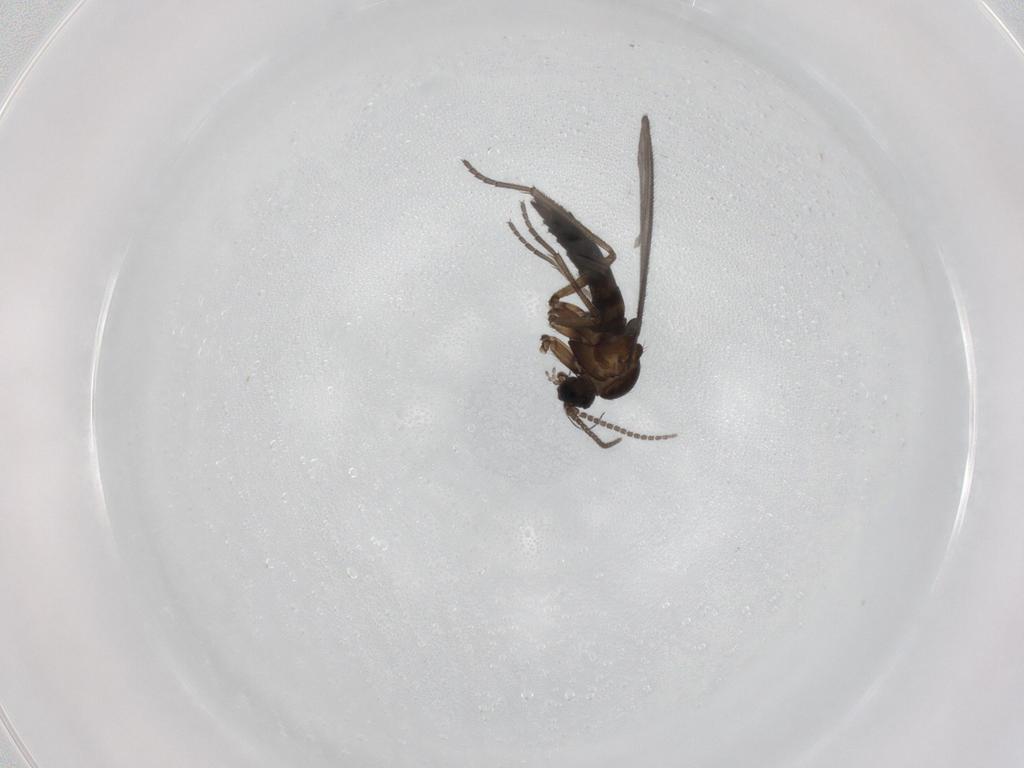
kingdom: Animalia
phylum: Arthropoda
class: Insecta
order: Diptera
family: Sciaridae
